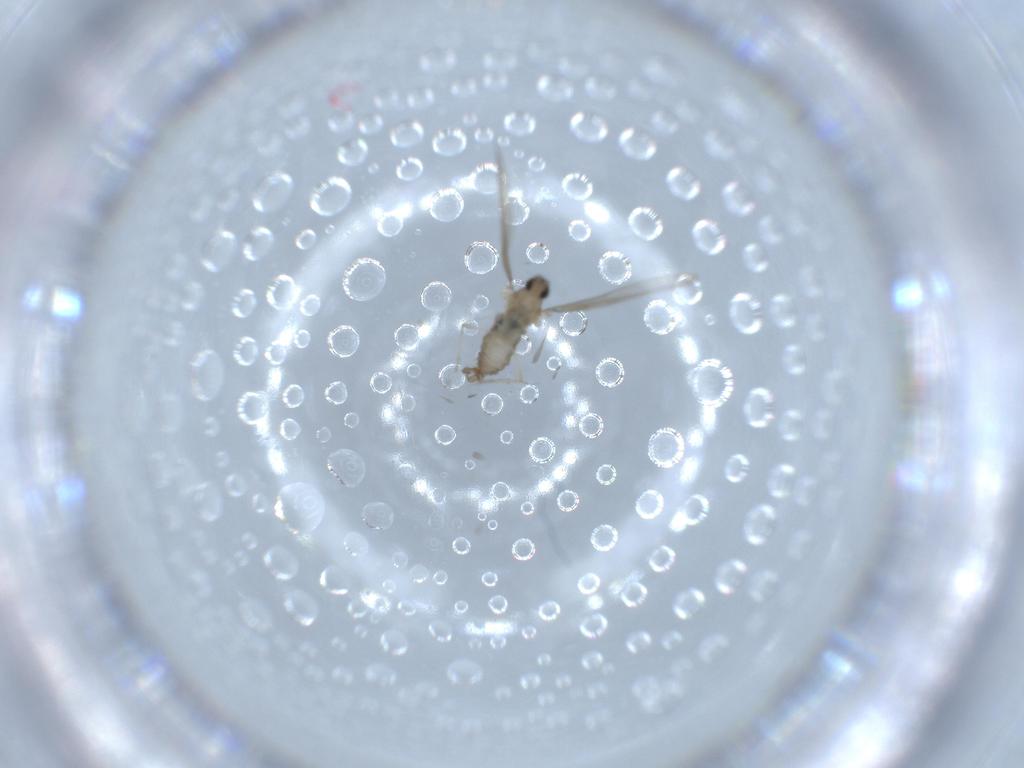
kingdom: Animalia
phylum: Arthropoda
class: Insecta
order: Diptera
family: Cecidomyiidae
